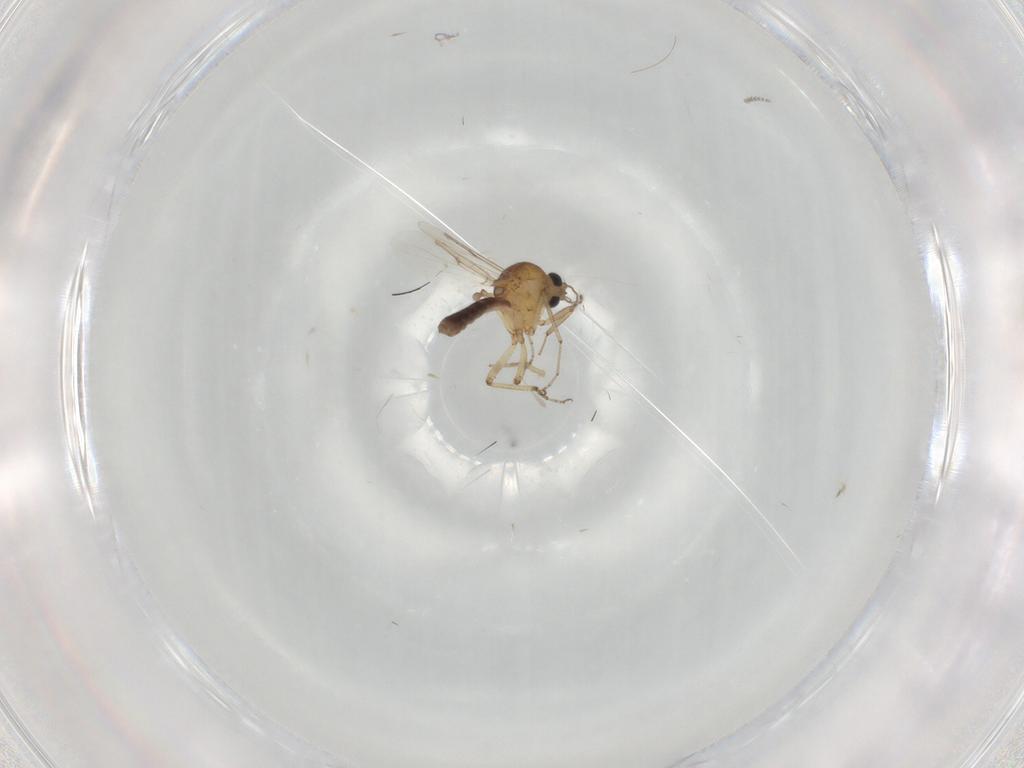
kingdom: Animalia
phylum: Arthropoda
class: Insecta
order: Diptera
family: Ceratopogonidae
